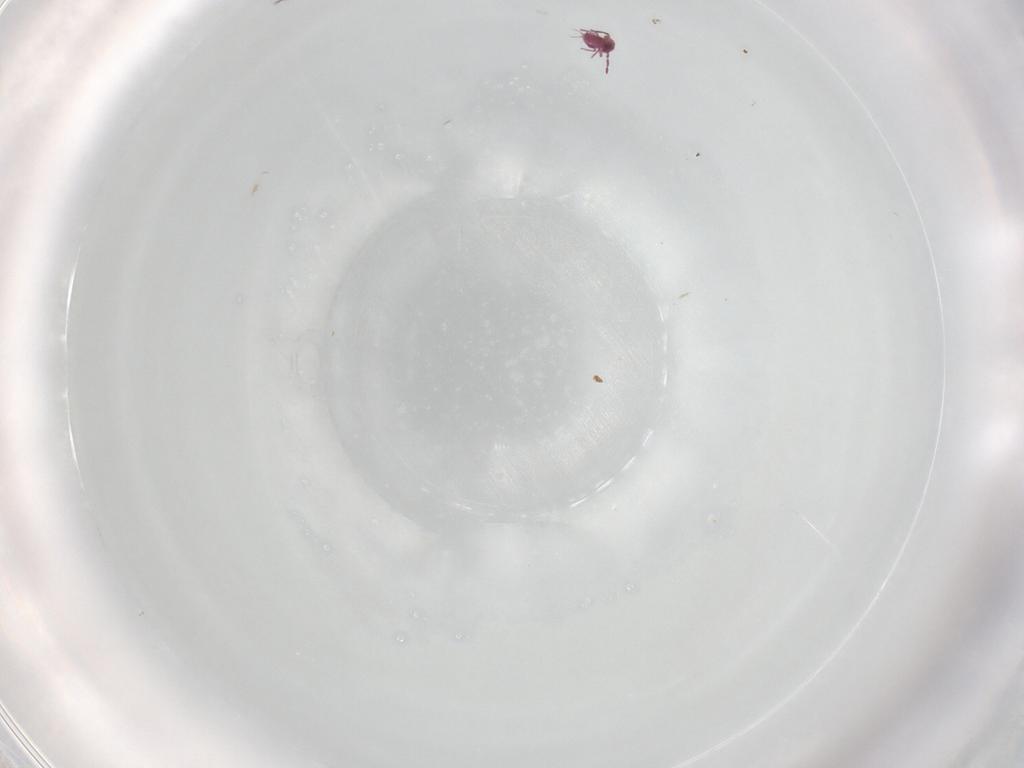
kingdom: Animalia
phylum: Arthropoda
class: Collembola
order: Symphypleona
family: Sminthurididae
